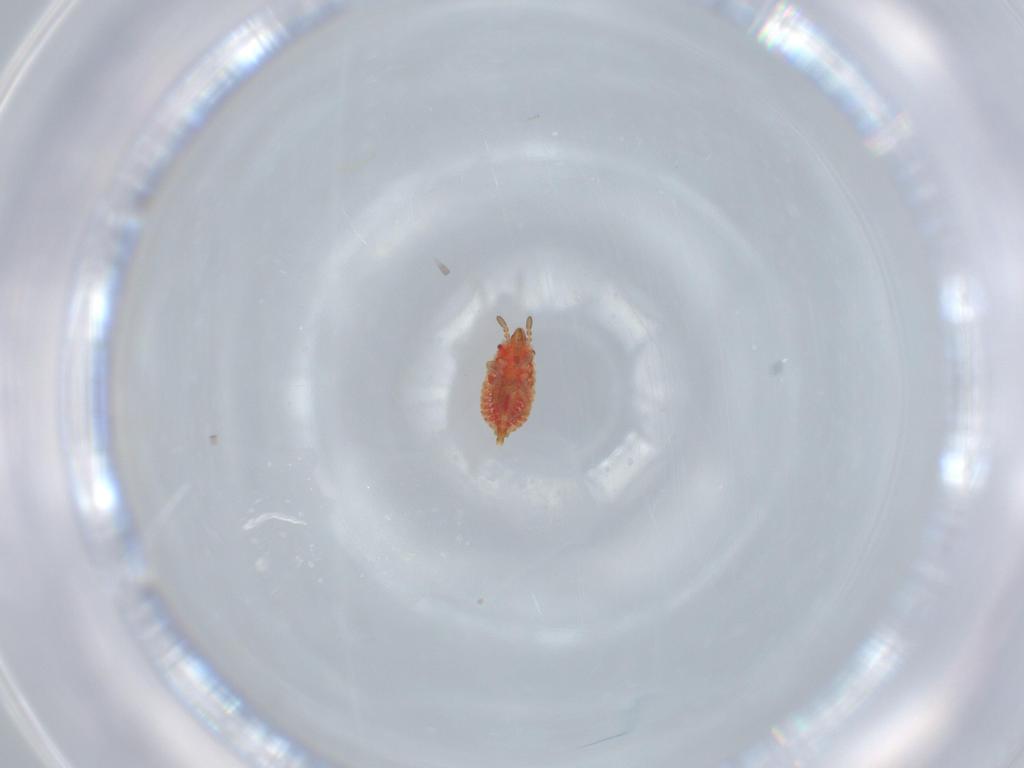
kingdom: Animalia
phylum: Arthropoda
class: Insecta
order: Hemiptera
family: Aradidae
